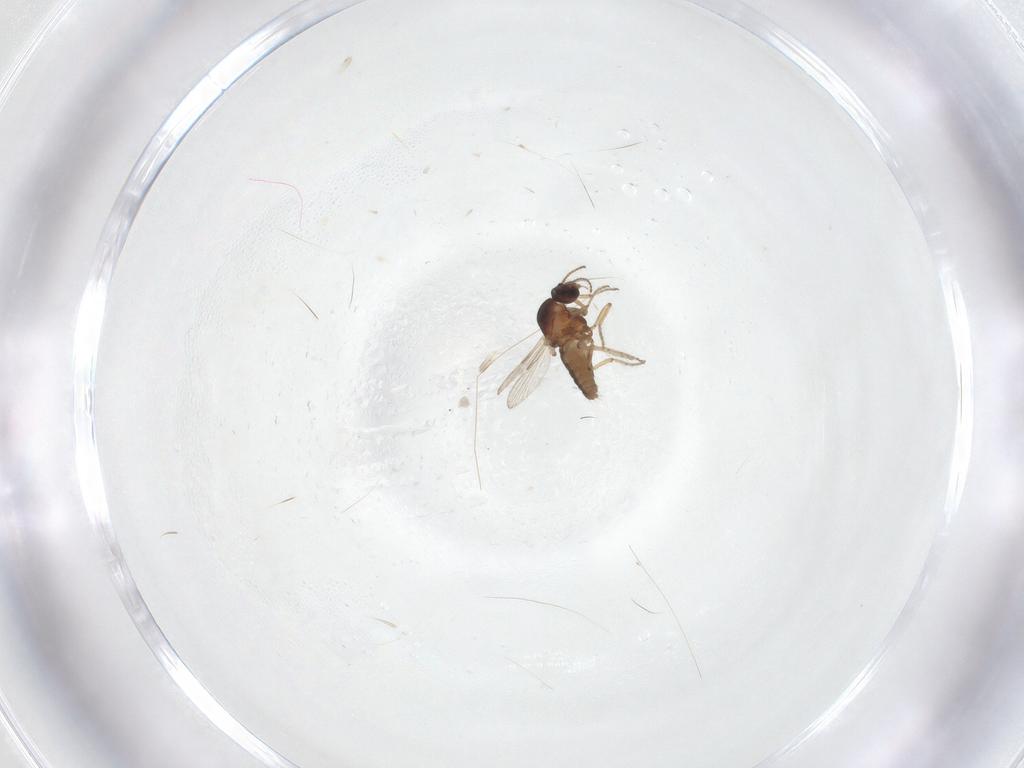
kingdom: Animalia
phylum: Arthropoda
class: Insecta
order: Diptera
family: Ceratopogonidae
